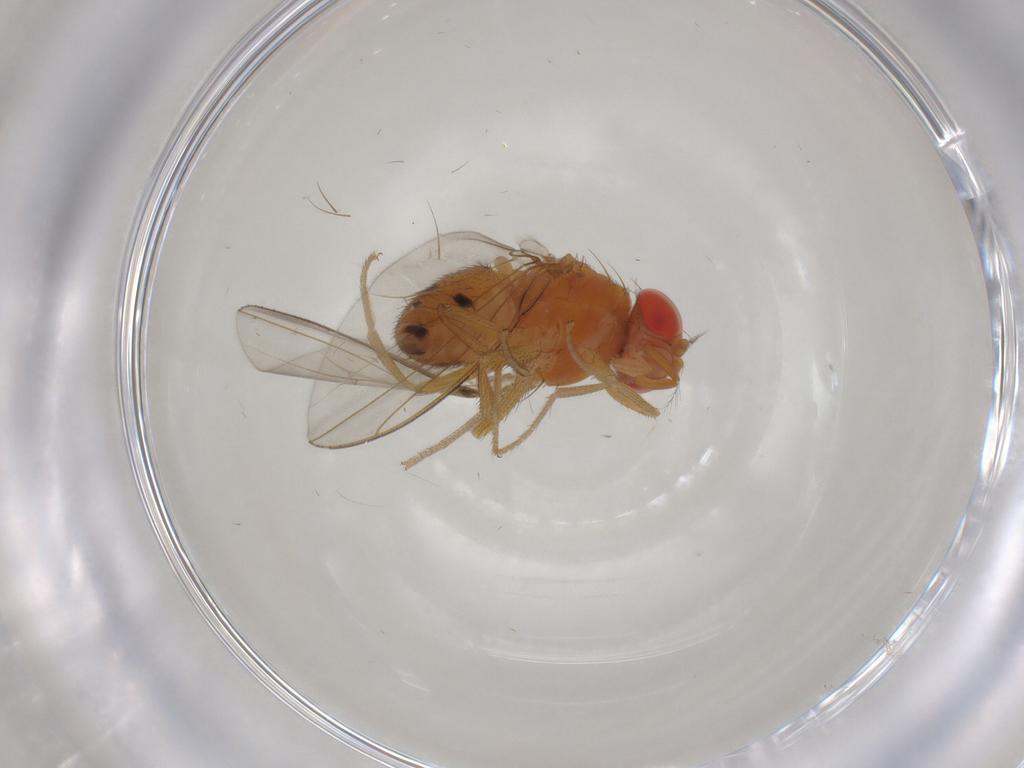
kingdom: Animalia
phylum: Arthropoda
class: Insecta
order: Diptera
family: Drosophilidae
